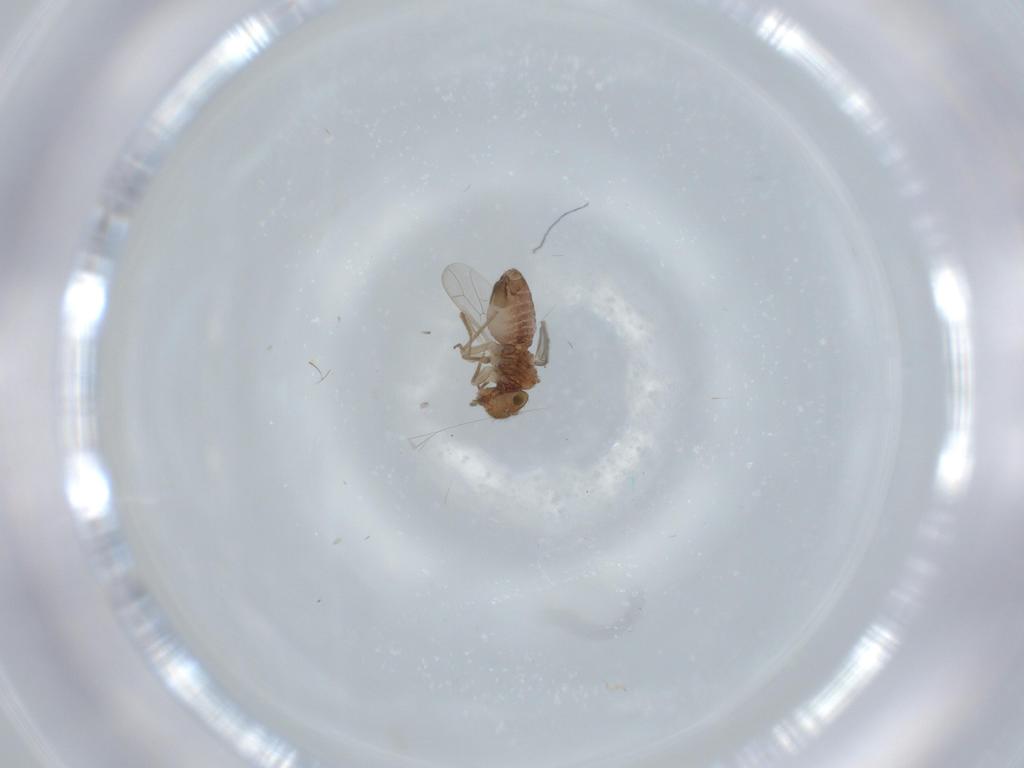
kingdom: Animalia
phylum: Arthropoda
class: Insecta
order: Psocodea
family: Ectopsocidae
